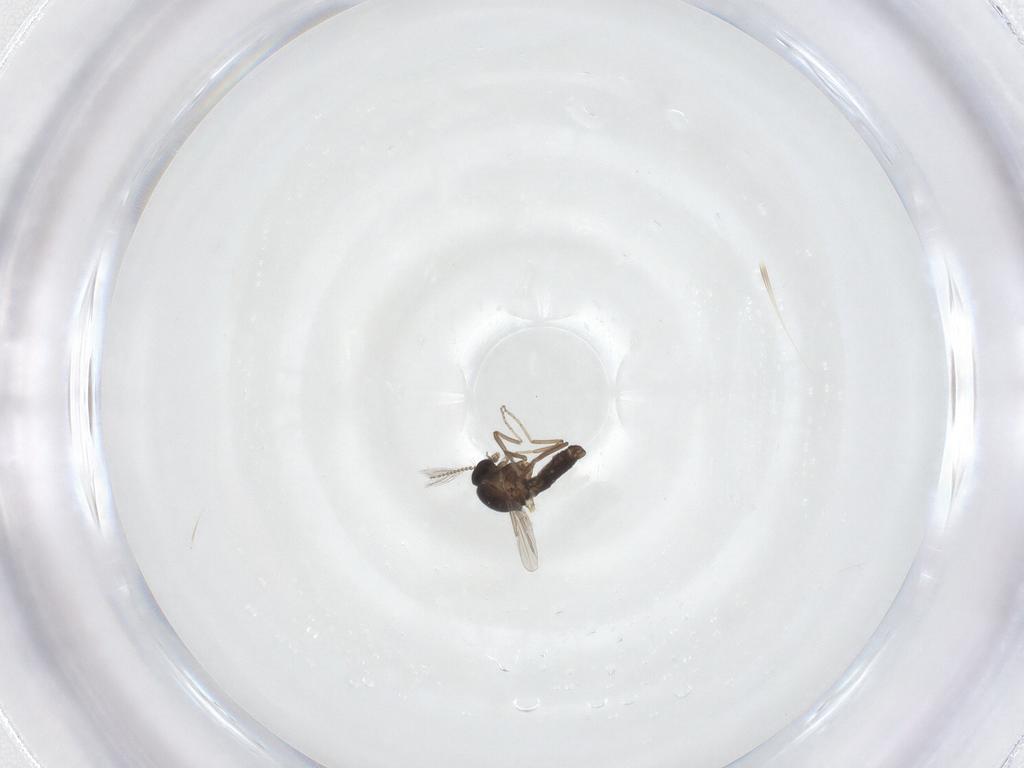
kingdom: Animalia
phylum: Arthropoda
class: Insecta
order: Diptera
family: Ceratopogonidae
